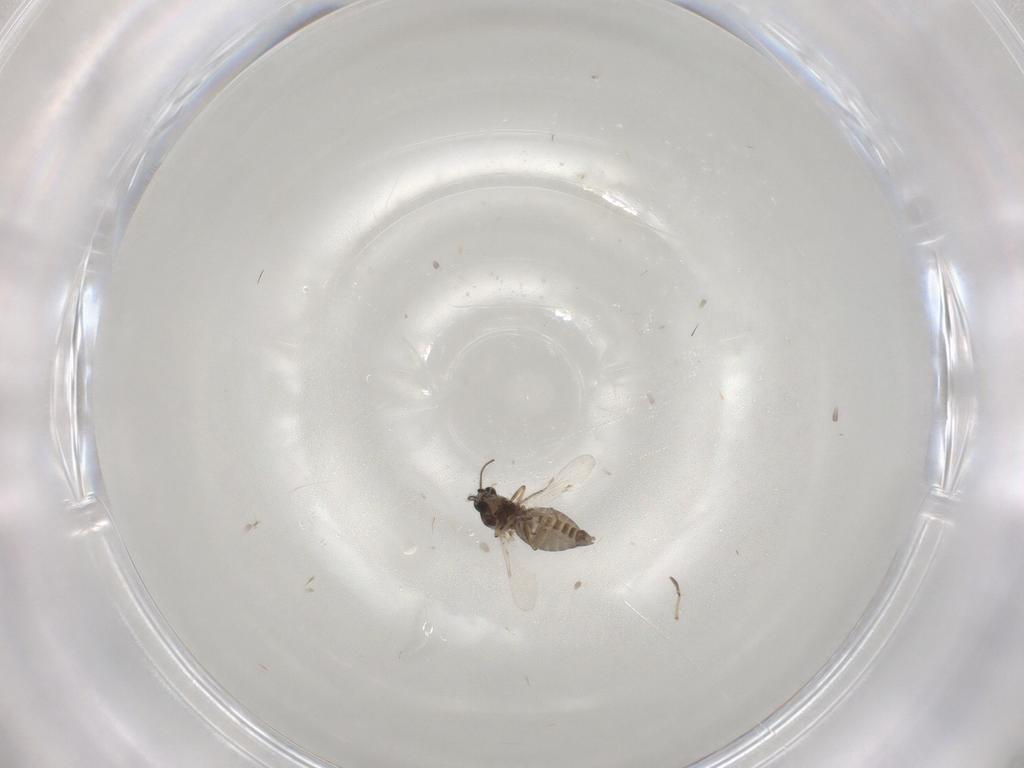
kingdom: Animalia
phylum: Arthropoda
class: Insecta
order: Diptera
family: Ceratopogonidae
